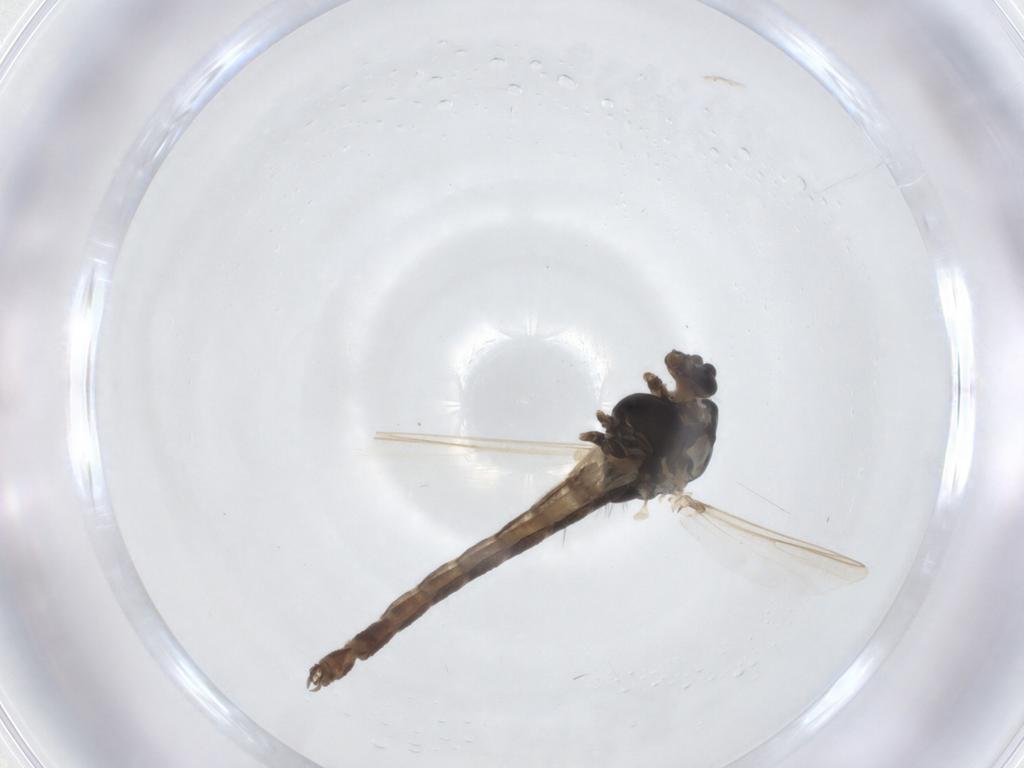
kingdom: Animalia
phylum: Arthropoda
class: Insecta
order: Diptera
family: Chironomidae
